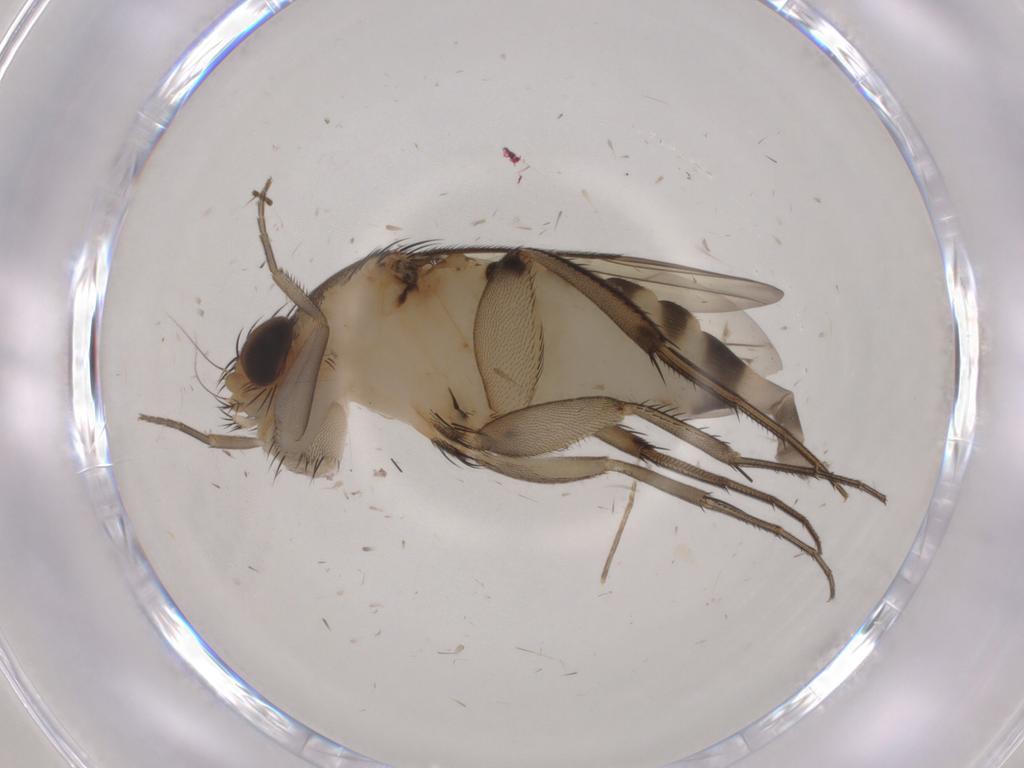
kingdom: Animalia
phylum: Arthropoda
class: Insecta
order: Diptera
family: Phoridae
